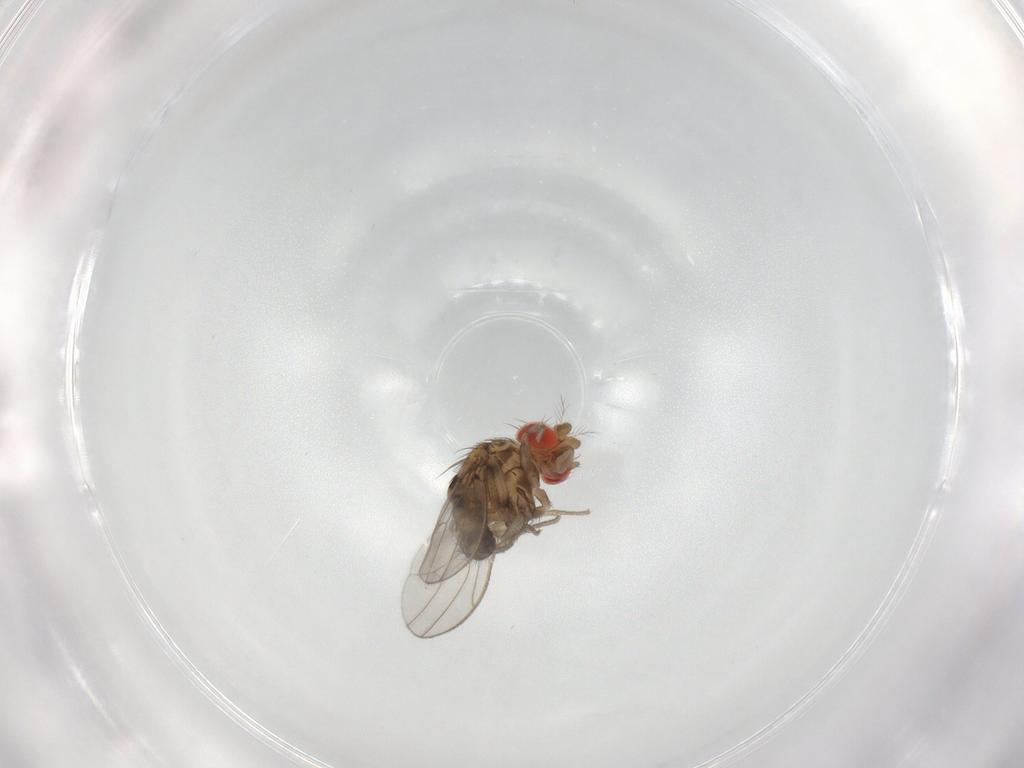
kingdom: Animalia
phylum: Arthropoda
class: Insecta
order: Diptera
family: Drosophilidae
